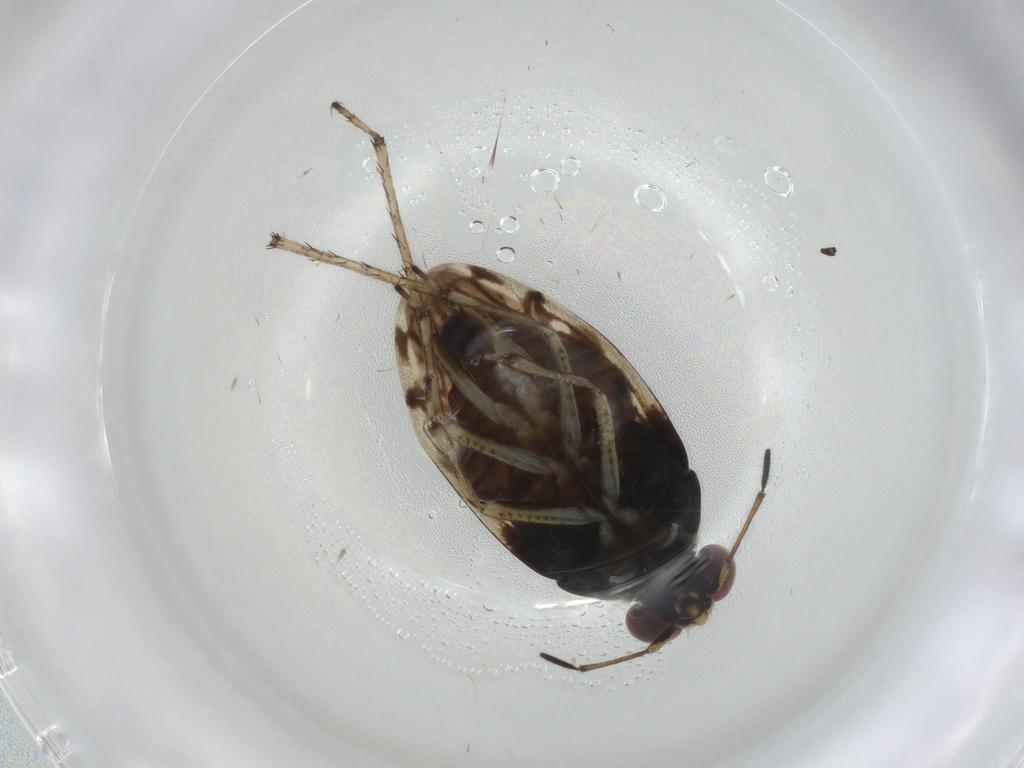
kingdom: Animalia
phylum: Arthropoda
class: Insecta
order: Hemiptera
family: Saldidae
